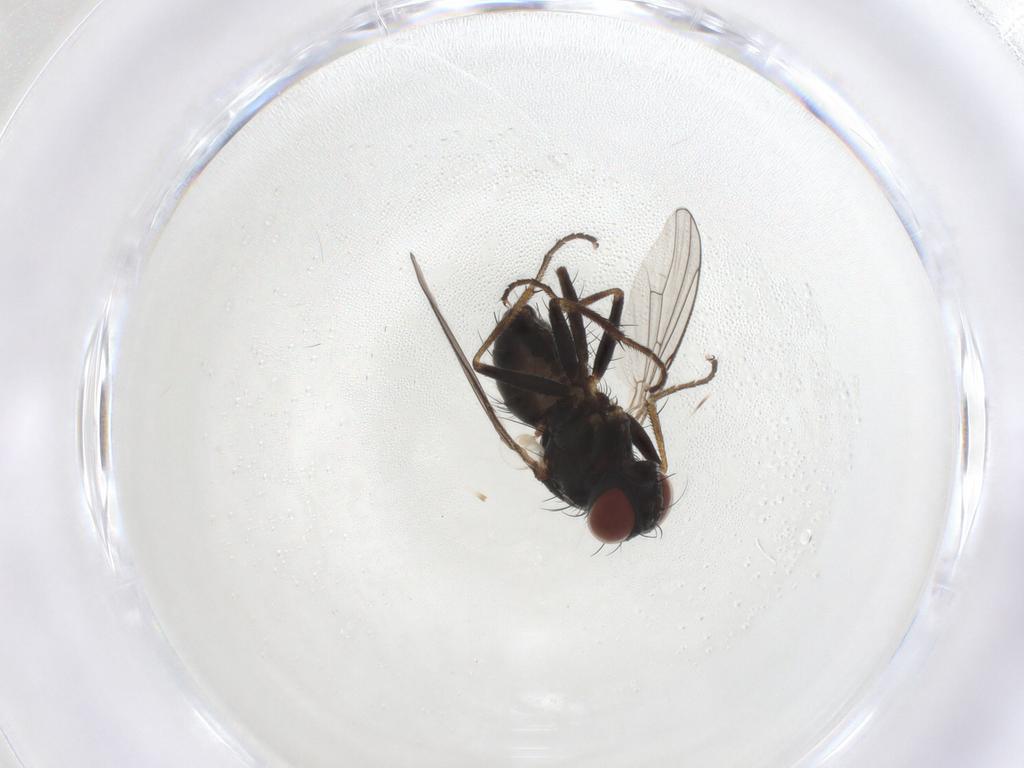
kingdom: Animalia
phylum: Arthropoda
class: Insecta
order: Diptera
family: Muscidae
